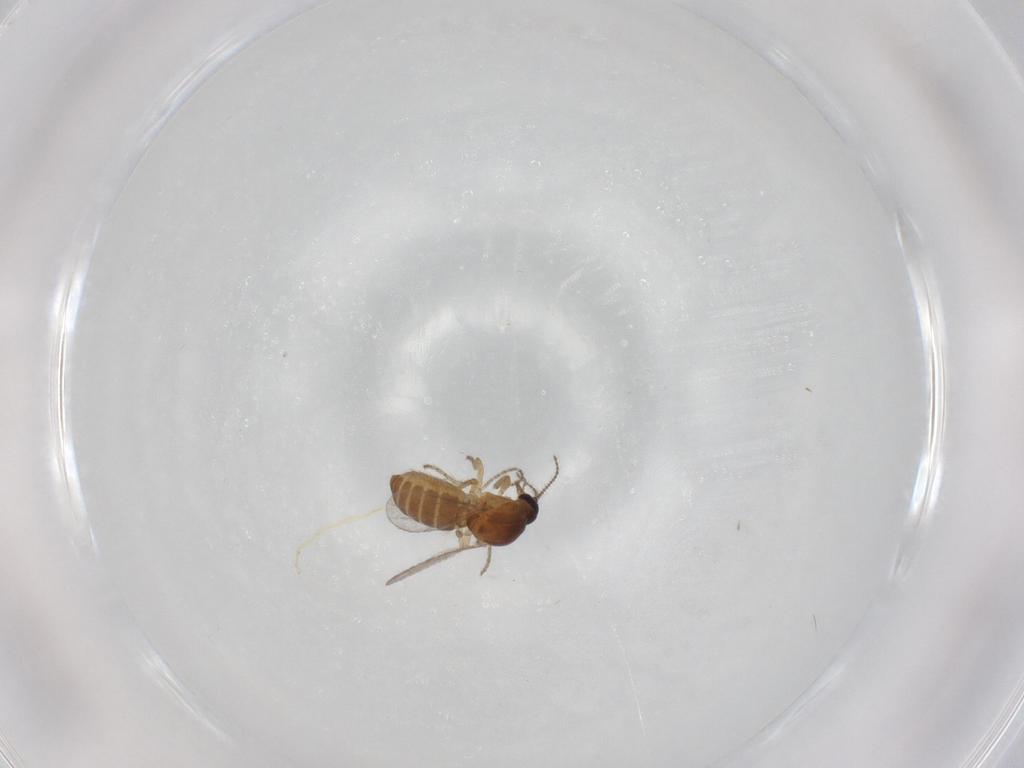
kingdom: Animalia
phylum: Arthropoda
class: Insecta
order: Diptera
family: Ceratopogonidae
